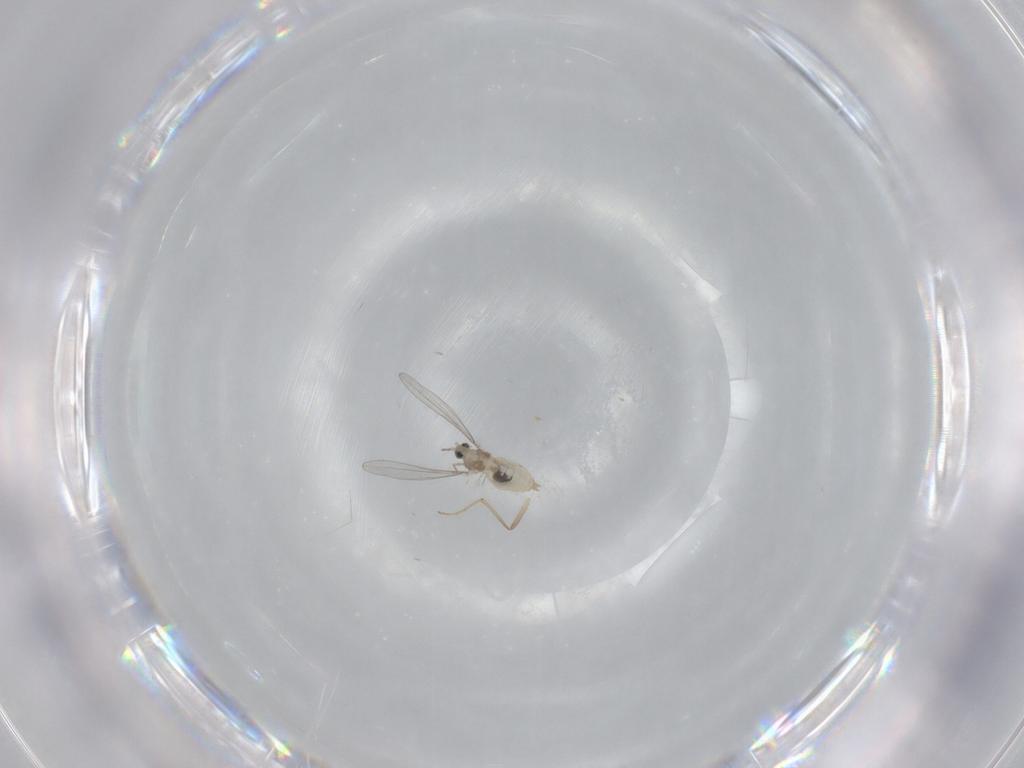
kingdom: Animalia
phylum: Arthropoda
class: Insecta
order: Diptera
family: Cecidomyiidae
